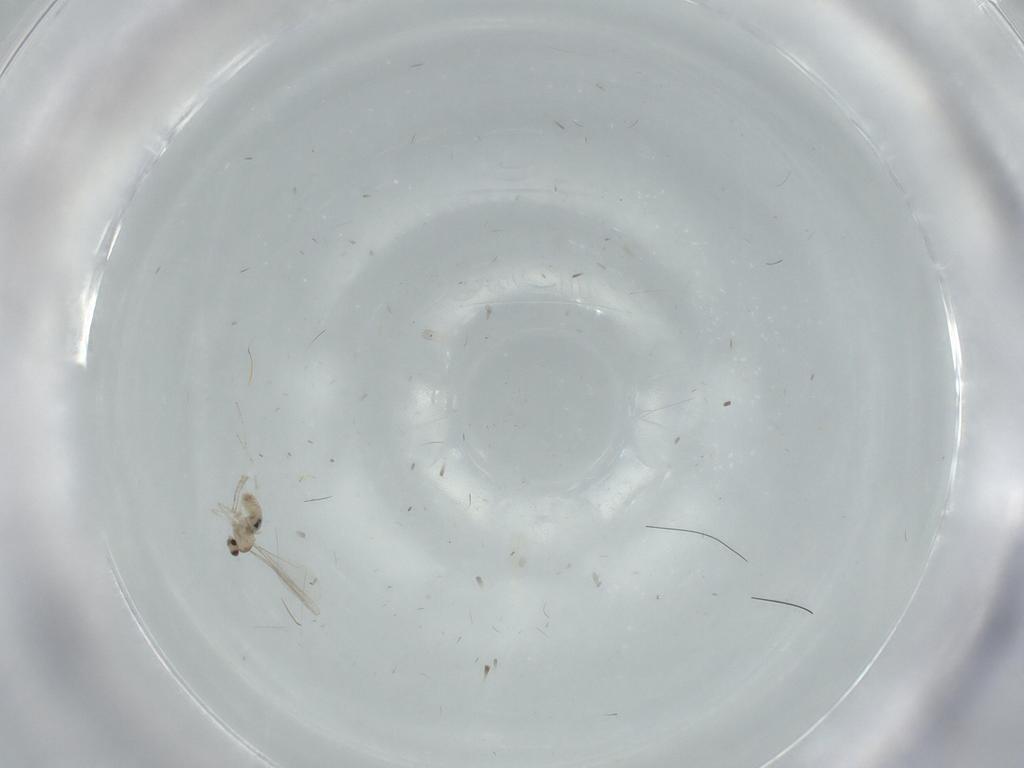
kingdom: Animalia
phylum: Arthropoda
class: Insecta
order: Diptera
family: Cecidomyiidae
